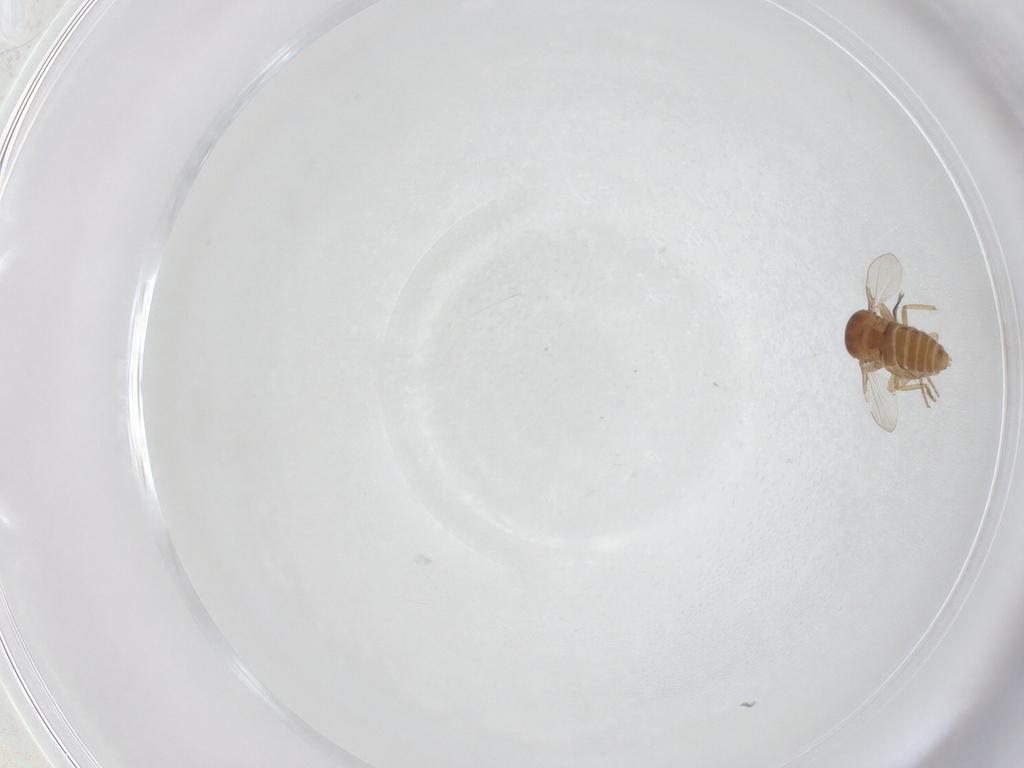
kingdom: Animalia
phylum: Arthropoda
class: Insecta
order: Diptera
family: Ceratopogonidae
